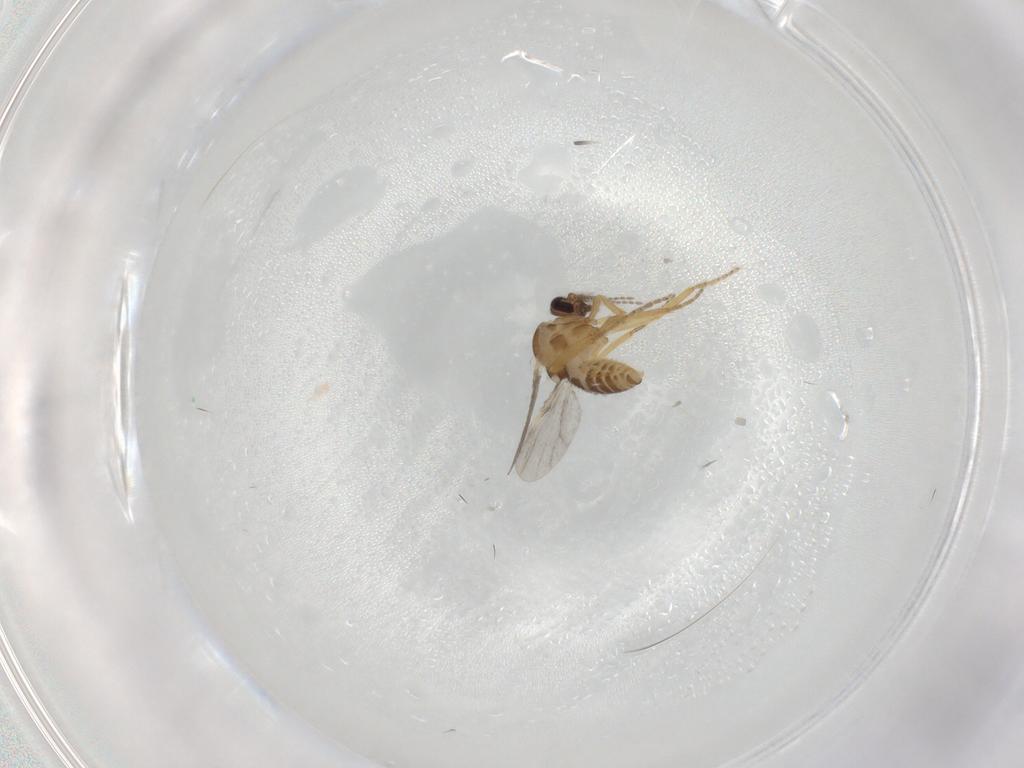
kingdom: Animalia
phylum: Arthropoda
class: Insecta
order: Diptera
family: Ceratopogonidae
